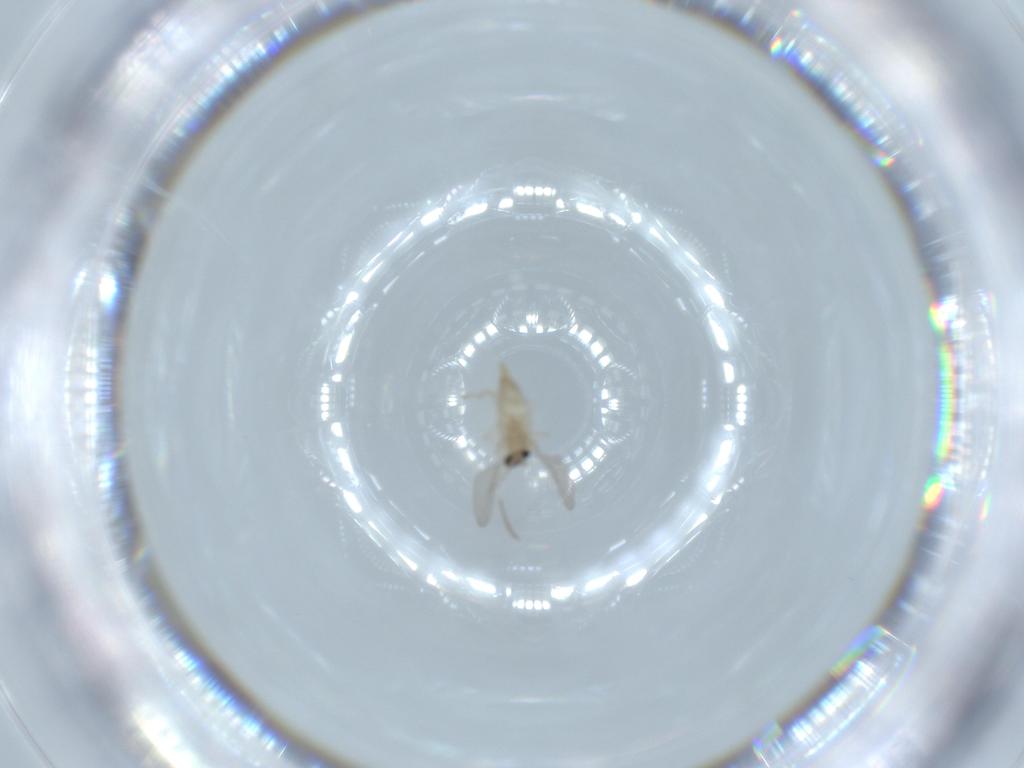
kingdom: Animalia
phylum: Arthropoda
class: Insecta
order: Diptera
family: Cecidomyiidae
